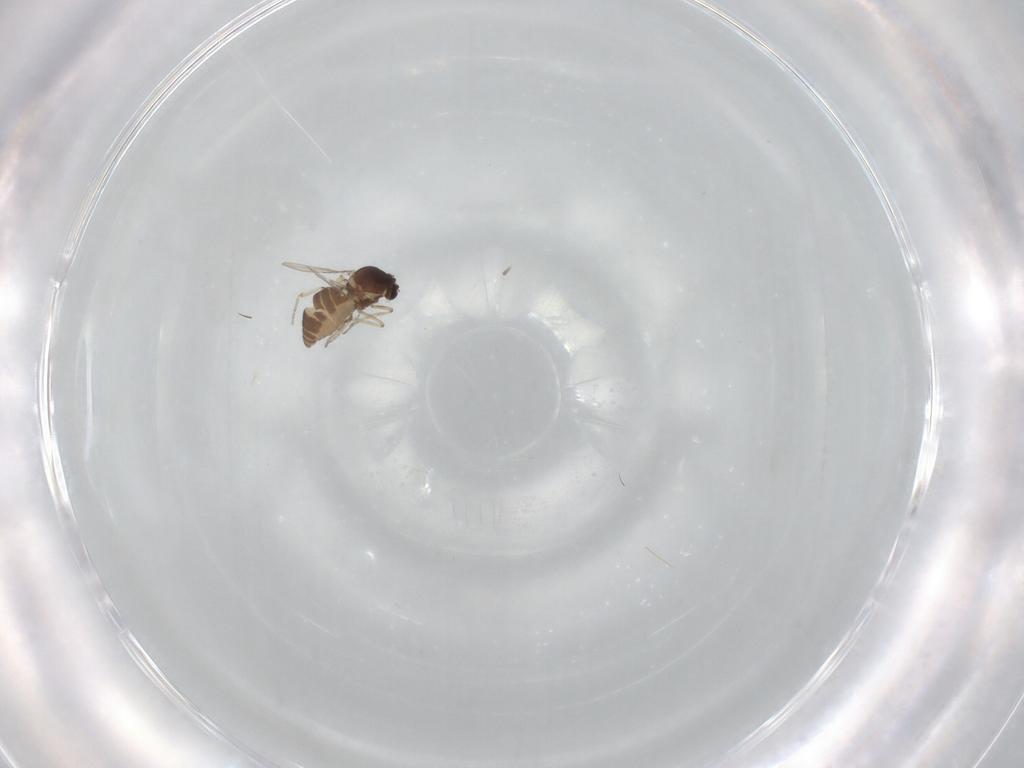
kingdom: Animalia
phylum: Arthropoda
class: Insecta
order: Diptera
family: Ceratopogonidae
